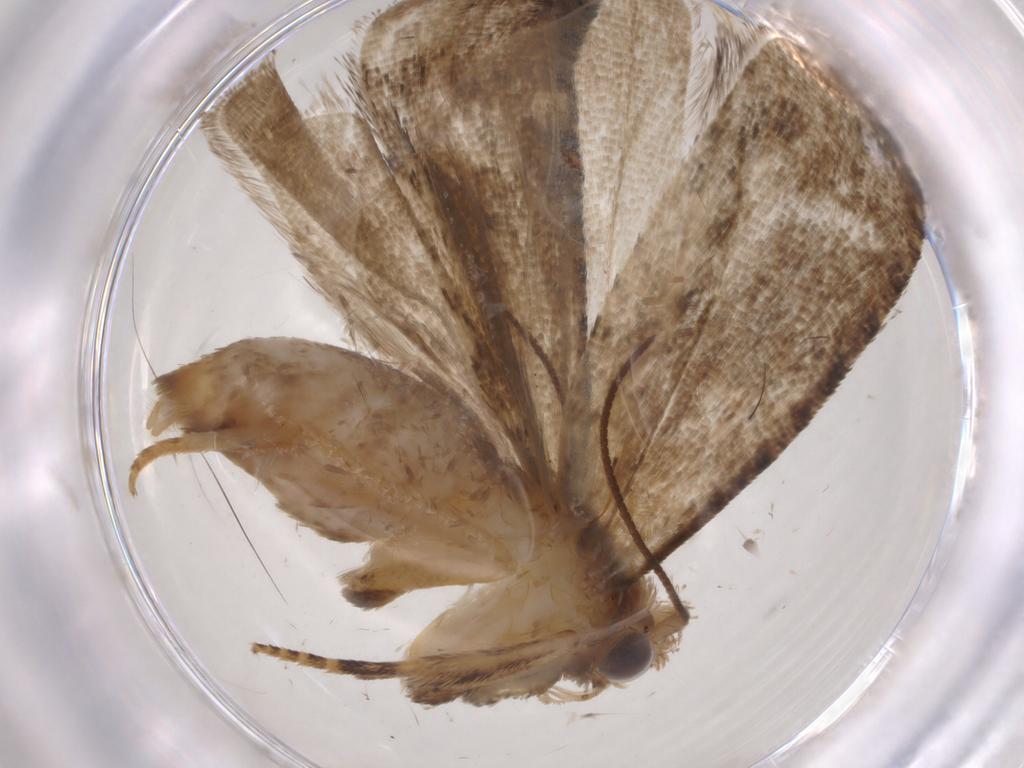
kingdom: Animalia
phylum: Arthropoda
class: Insecta
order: Lepidoptera
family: Tortricidae
